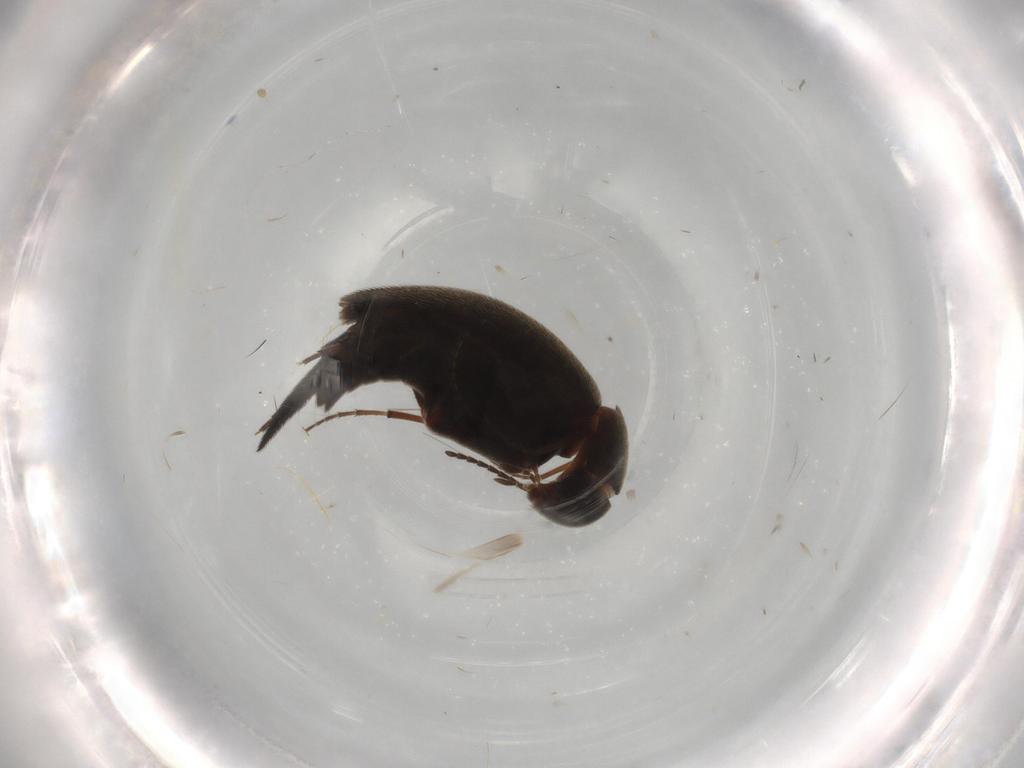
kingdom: Animalia
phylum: Arthropoda
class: Insecta
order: Coleoptera
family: Mordellidae
